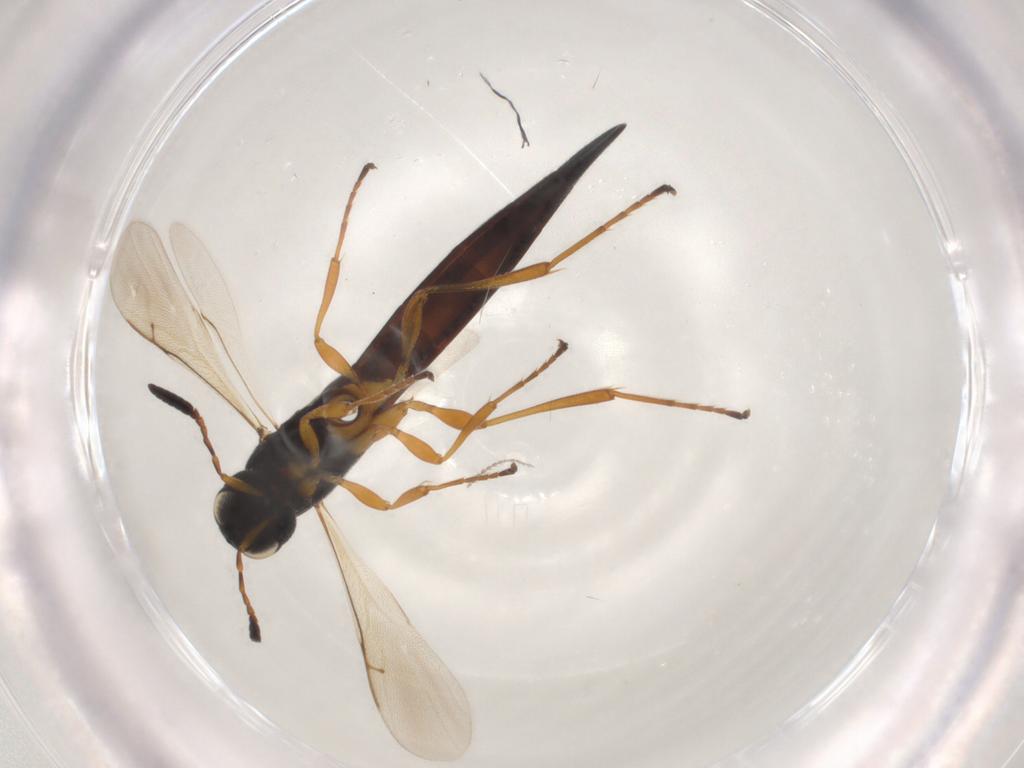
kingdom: Animalia
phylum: Arthropoda
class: Insecta
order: Hymenoptera
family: Scelionidae
